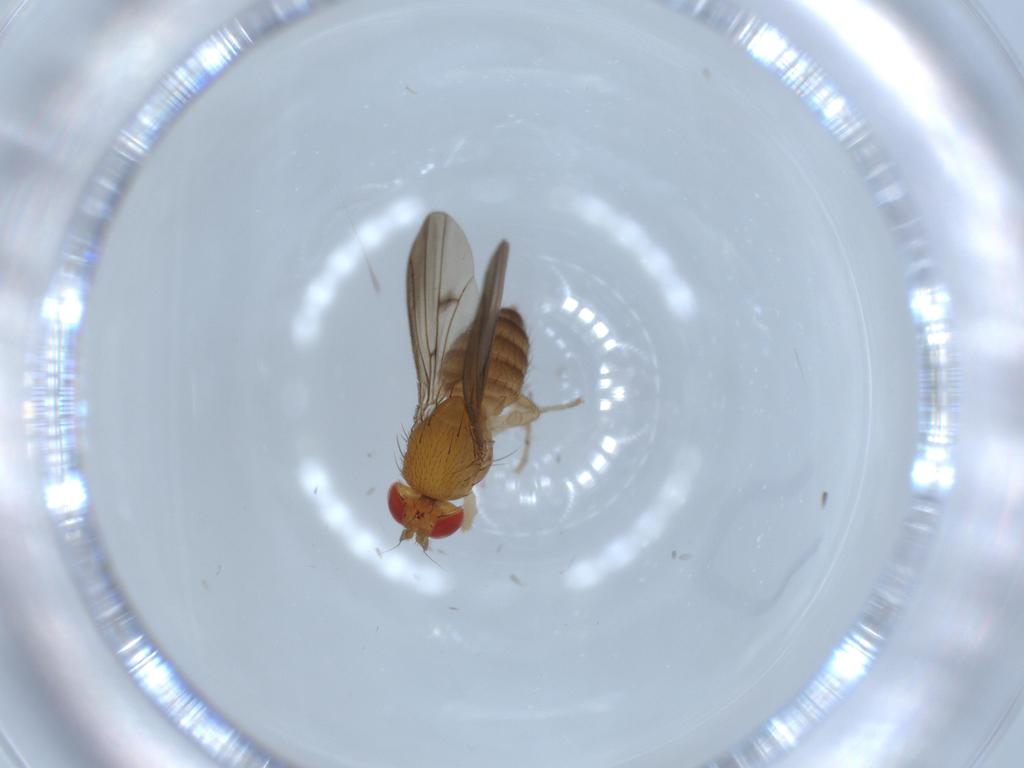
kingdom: Animalia
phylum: Arthropoda
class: Insecta
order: Diptera
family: Drosophilidae
